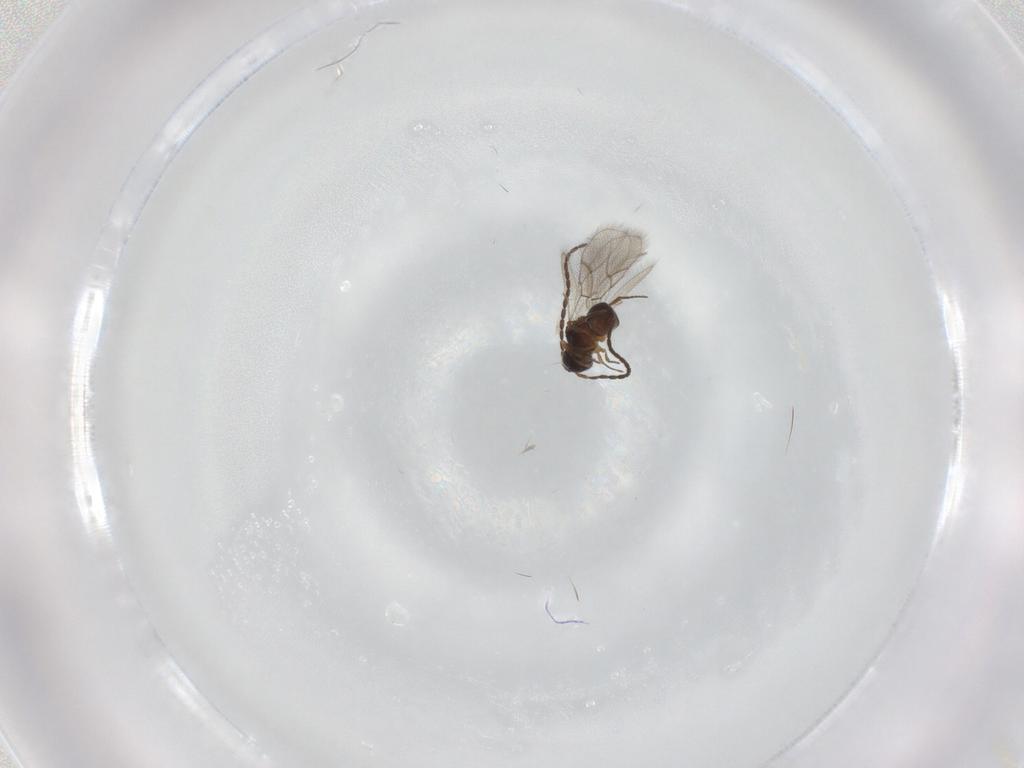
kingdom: Animalia
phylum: Arthropoda
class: Insecta
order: Hymenoptera
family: Figitidae
